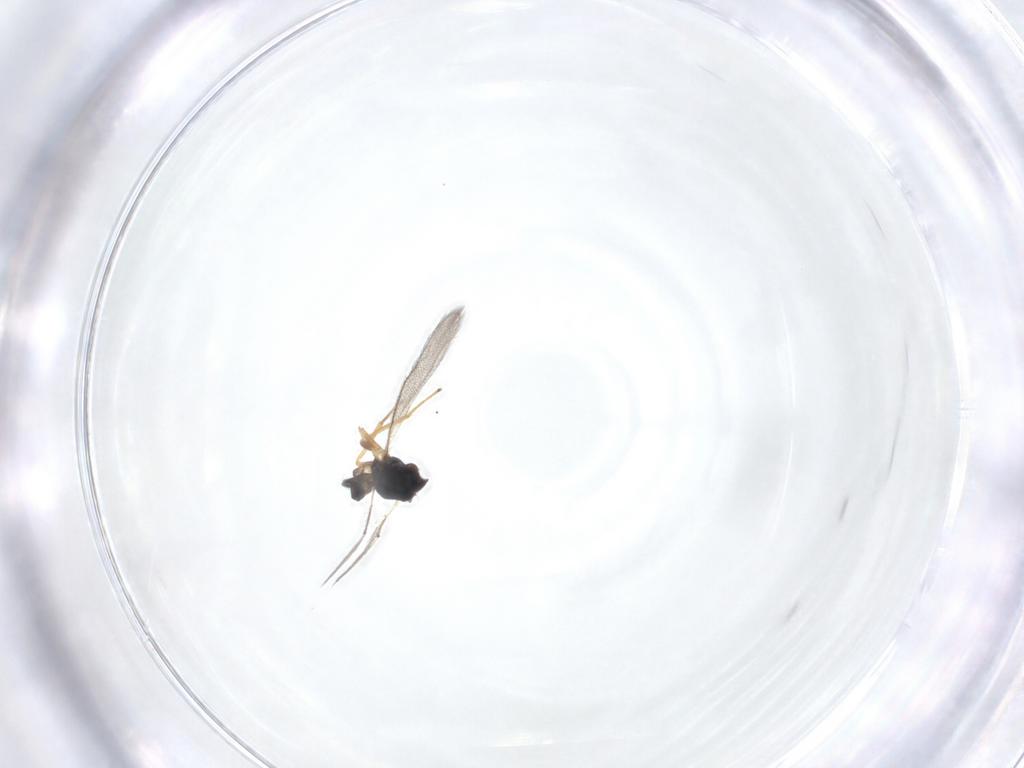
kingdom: Animalia
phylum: Arthropoda
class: Insecta
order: Hymenoptera
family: Eulophidae
